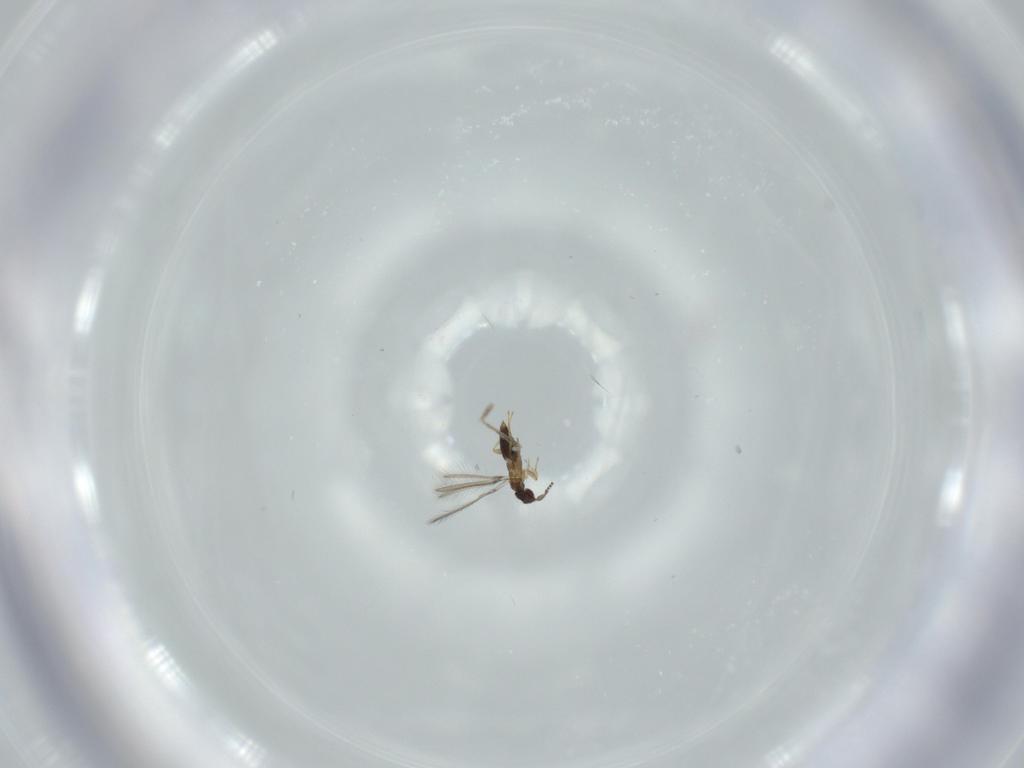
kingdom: Animalia
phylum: Arthropoda
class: Insecta
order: Hymenoptera
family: Mymaridae
